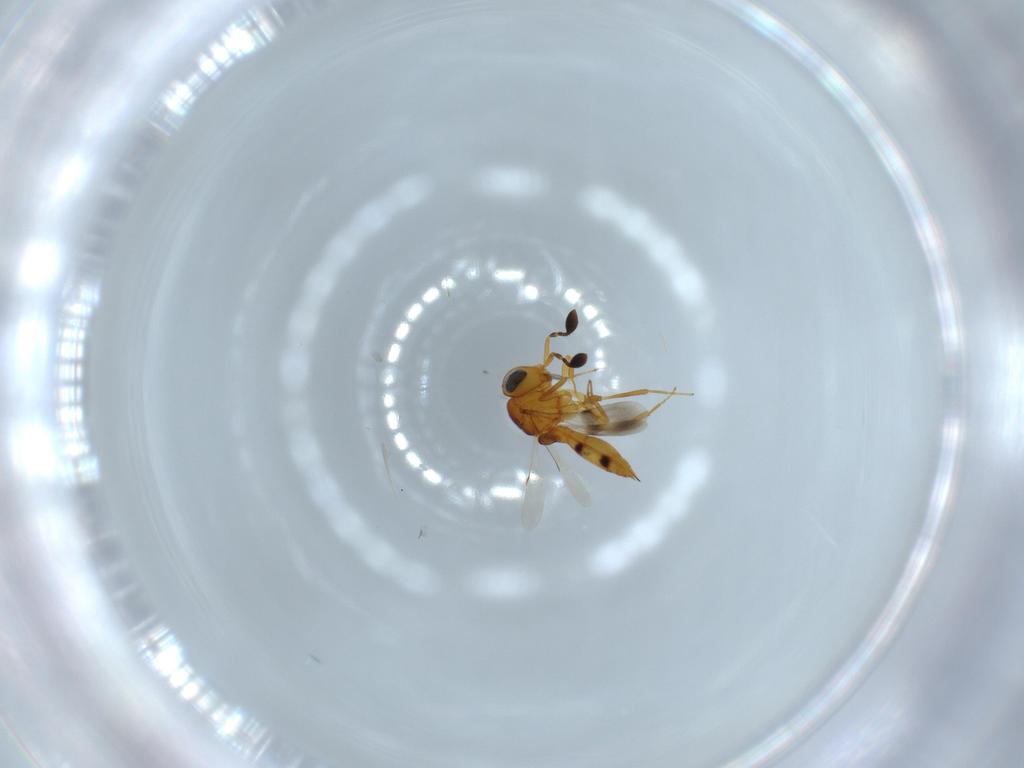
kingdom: Animalia
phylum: Arthropoda
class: Insecta
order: Hymenoptera
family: Scelionidae
